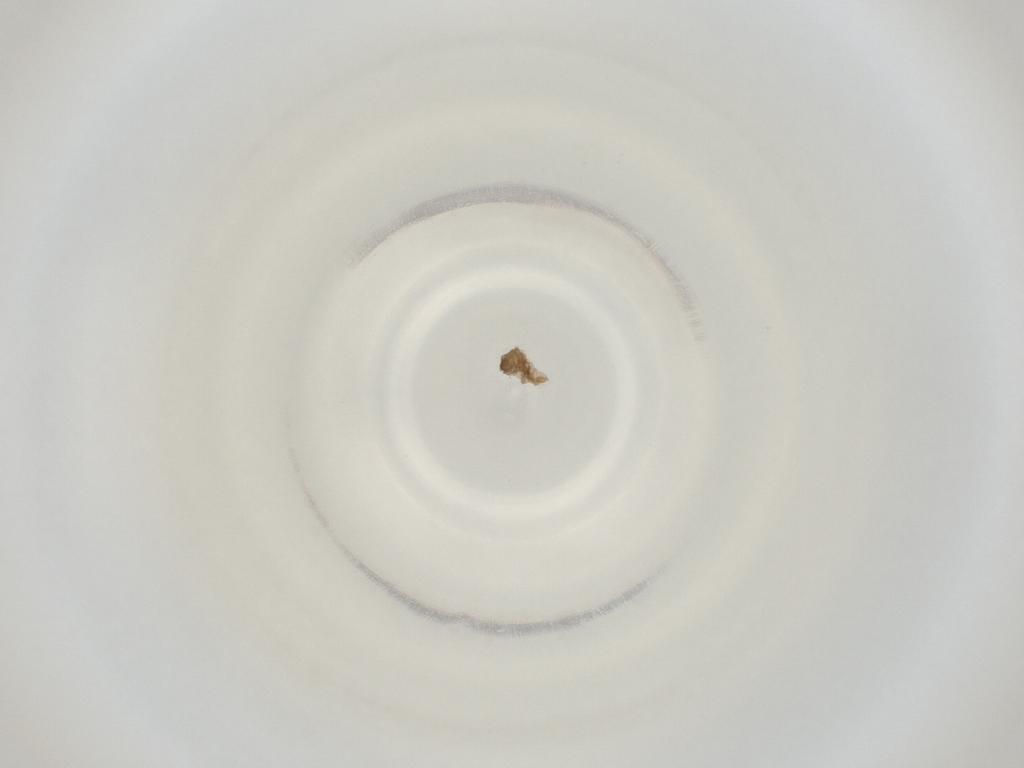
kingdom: Animalia
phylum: Arthropoda
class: Insecta
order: Diptera
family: Cecidomyiidae
